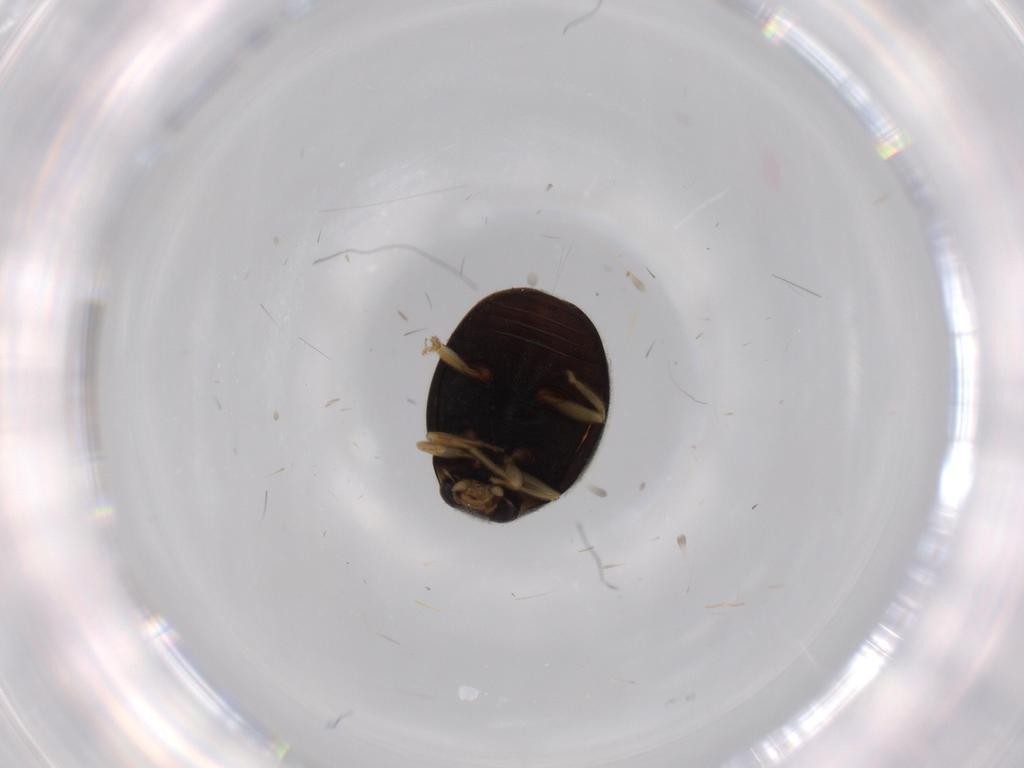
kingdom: Animalia
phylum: Arthropoda
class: Insecta
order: Coleoptera
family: Coccinellidae
